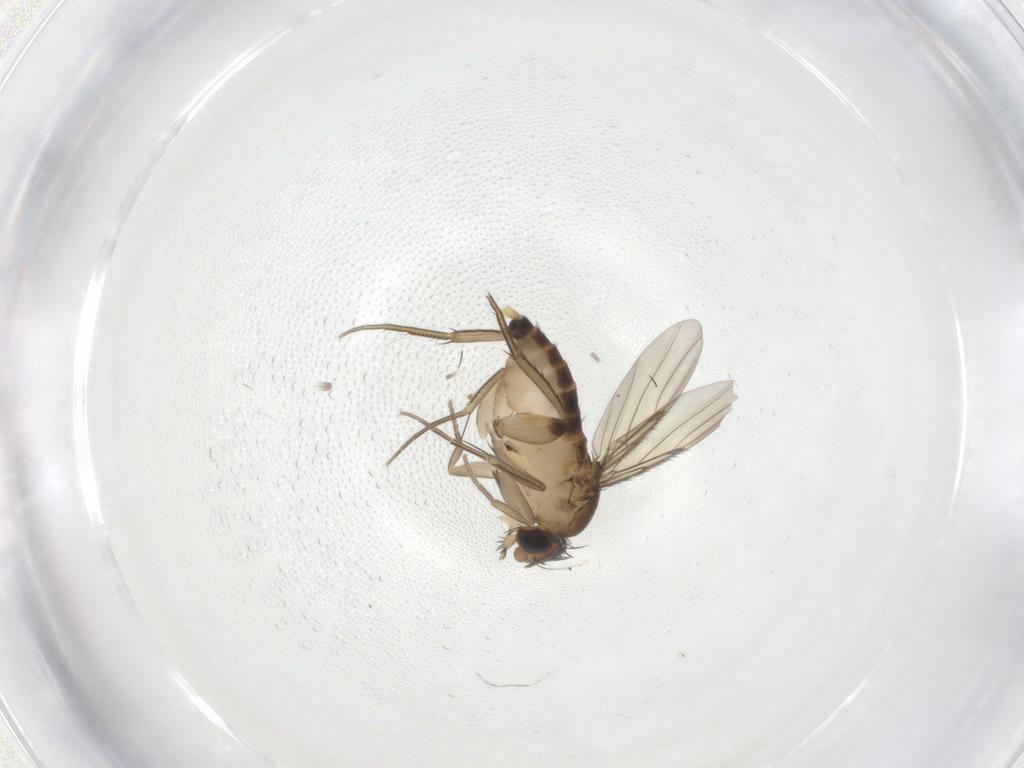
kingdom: Animalia
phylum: Arthropoda
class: Insecta
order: Diptera
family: Phoridae
